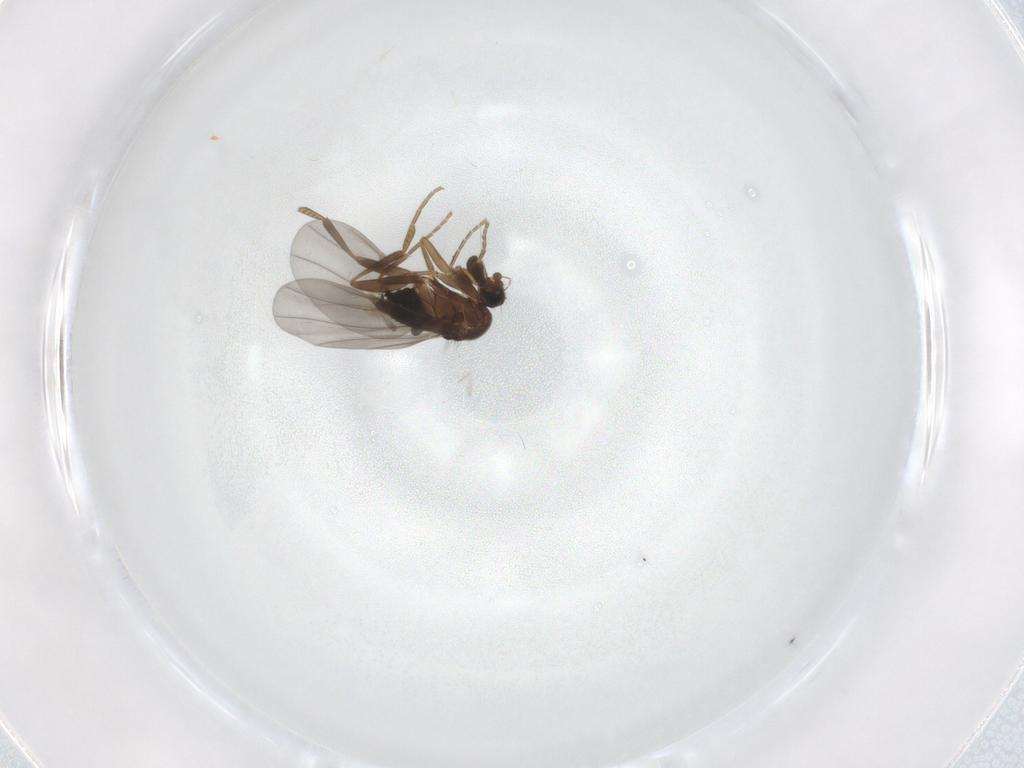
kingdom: Animalia
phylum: Arthropoda
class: Insecta
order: Diptera
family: Phoridae
